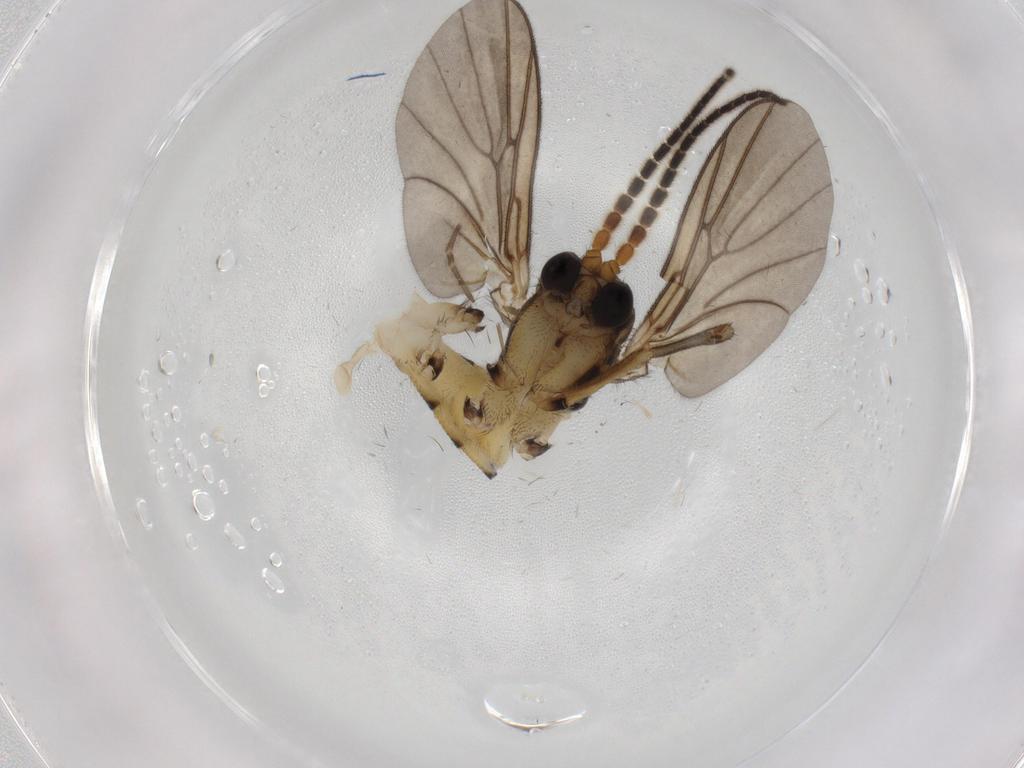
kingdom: Animalia
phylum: Arthropoda
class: Insecta
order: Diptera
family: Cecidomyiidae
